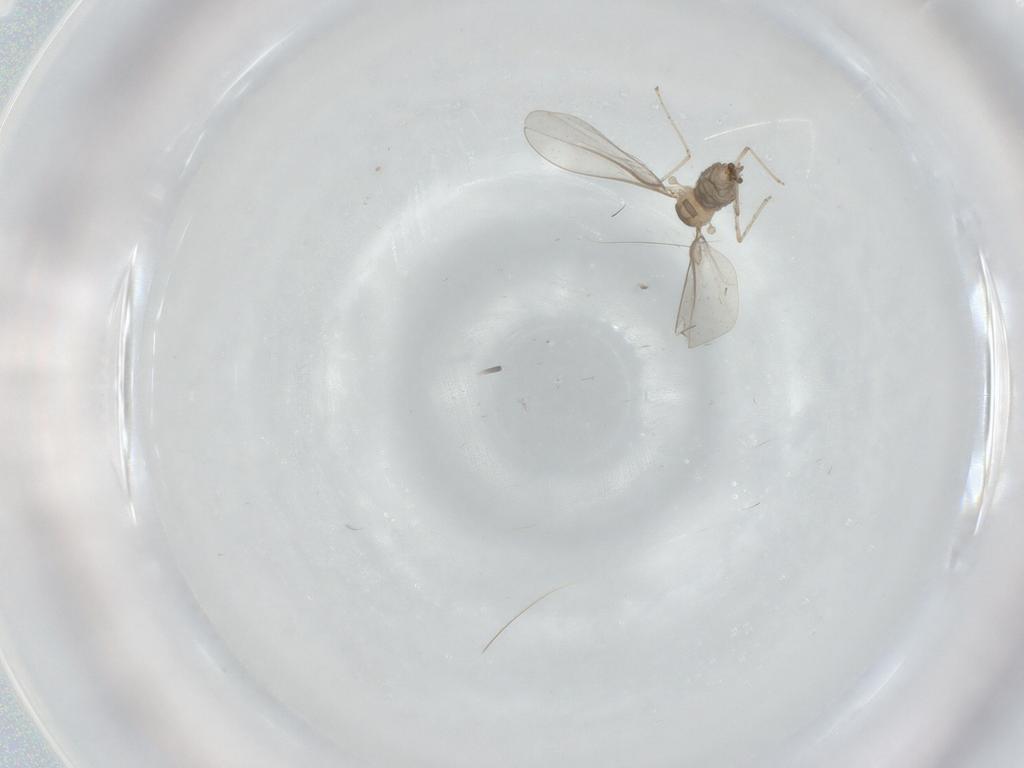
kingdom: Animalia
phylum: Arthropoda
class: Insecta
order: Diptera
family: Cecidomyiidae
